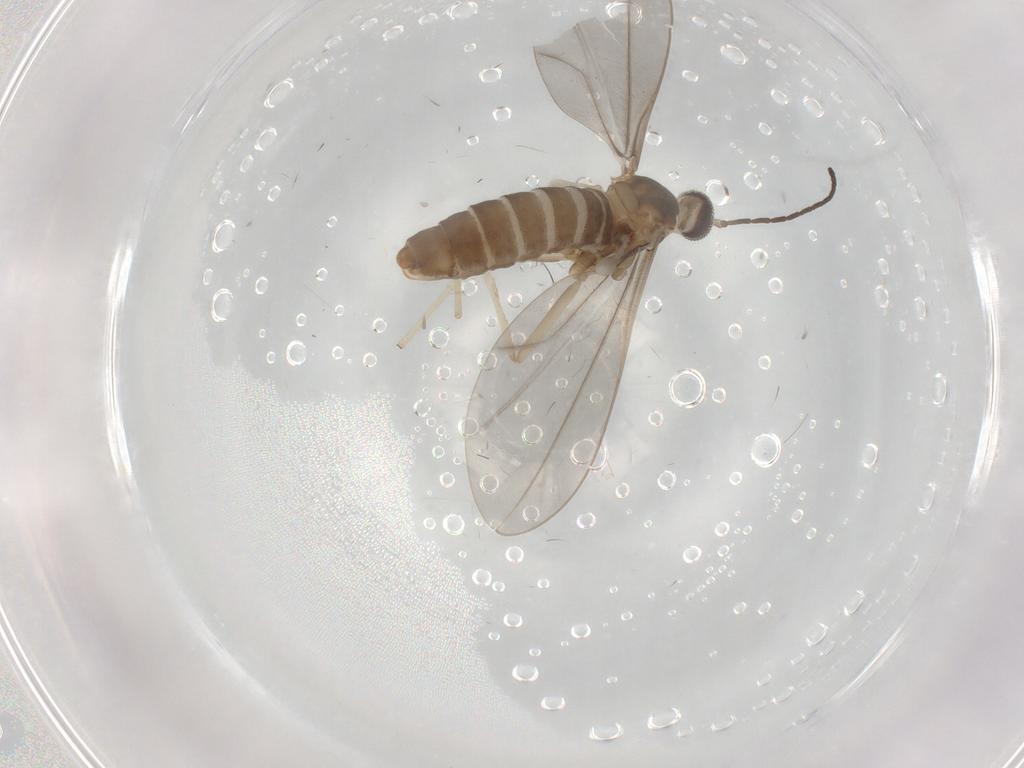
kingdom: Animalia
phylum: Arthropoda
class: Insecta
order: Diptera
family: Cecidomyiidae
